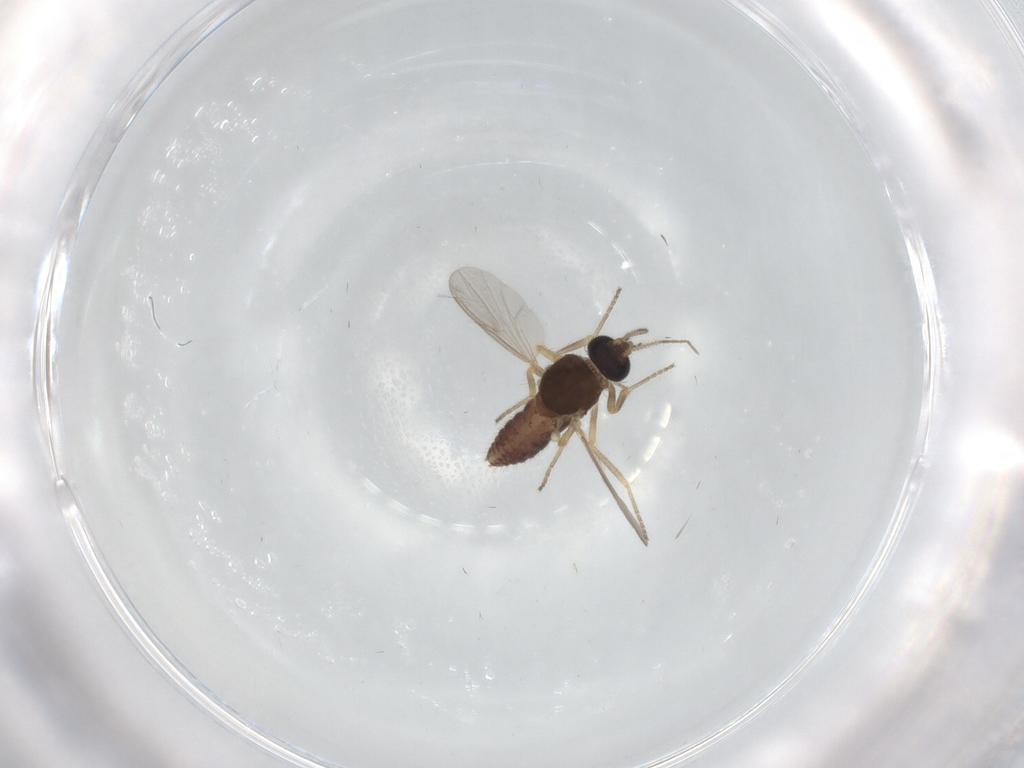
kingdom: Animalia
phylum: Arthropoda
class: Insecta
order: Diptera
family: Ceratopogonidae
